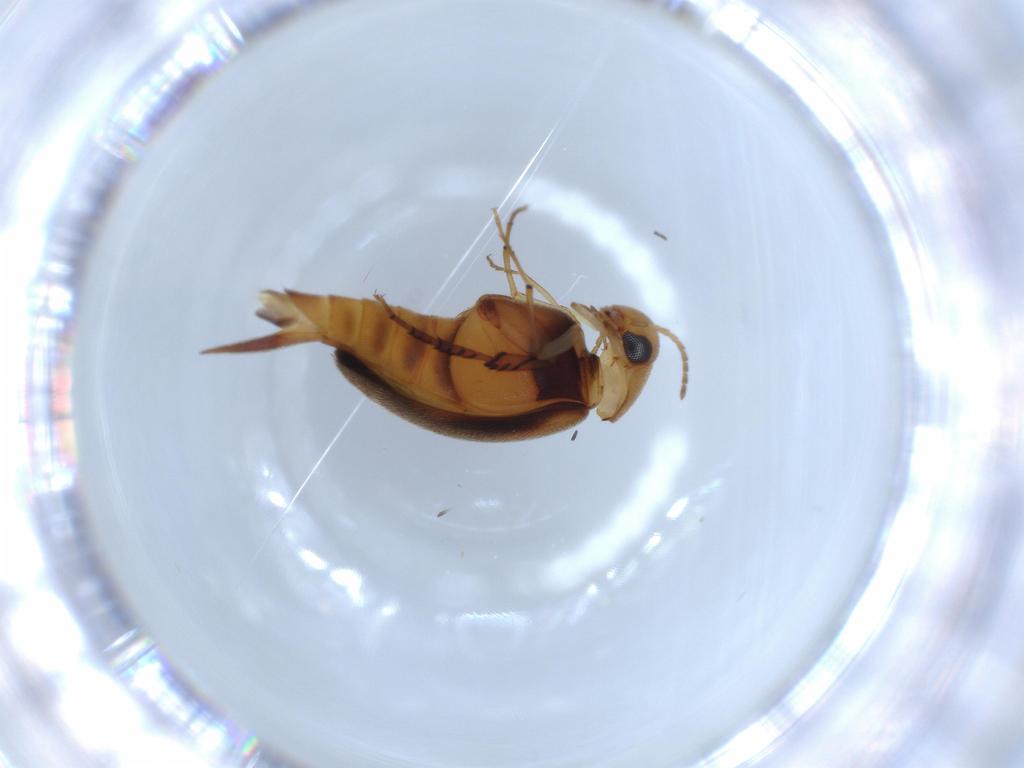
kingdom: Animalia
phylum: Arthropoda
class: Insecta
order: Coleoptera
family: Mordellidae
